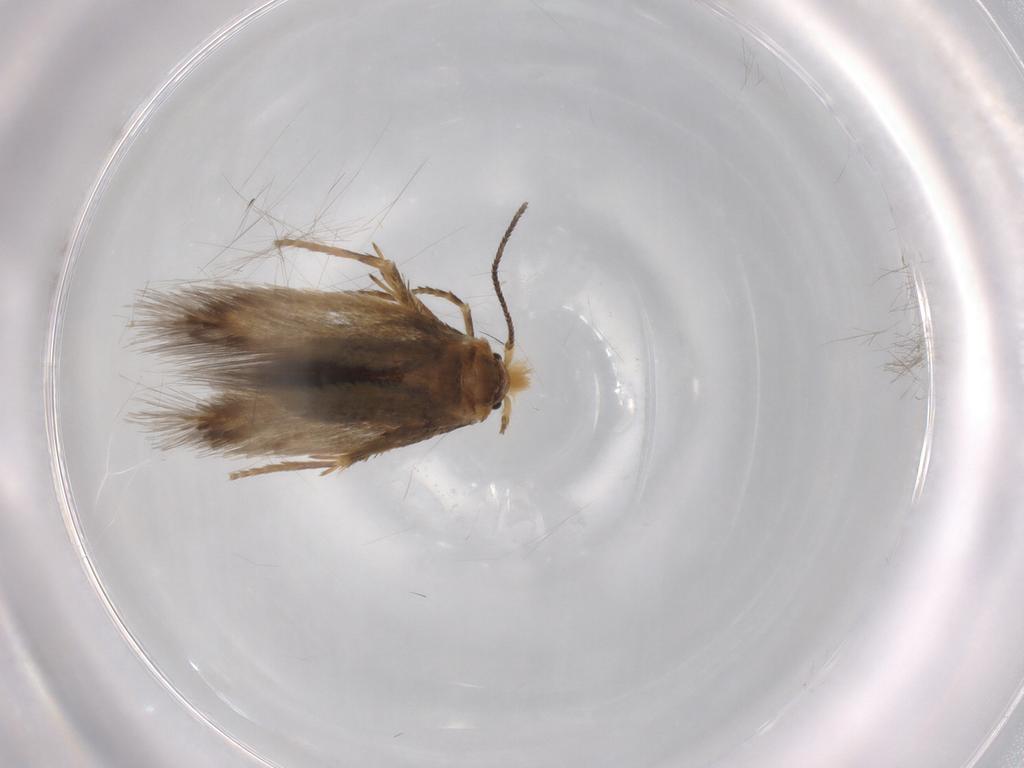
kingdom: Animalia
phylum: Arthropoda
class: Insecta
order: Lepidoptera
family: Nepticulidae
